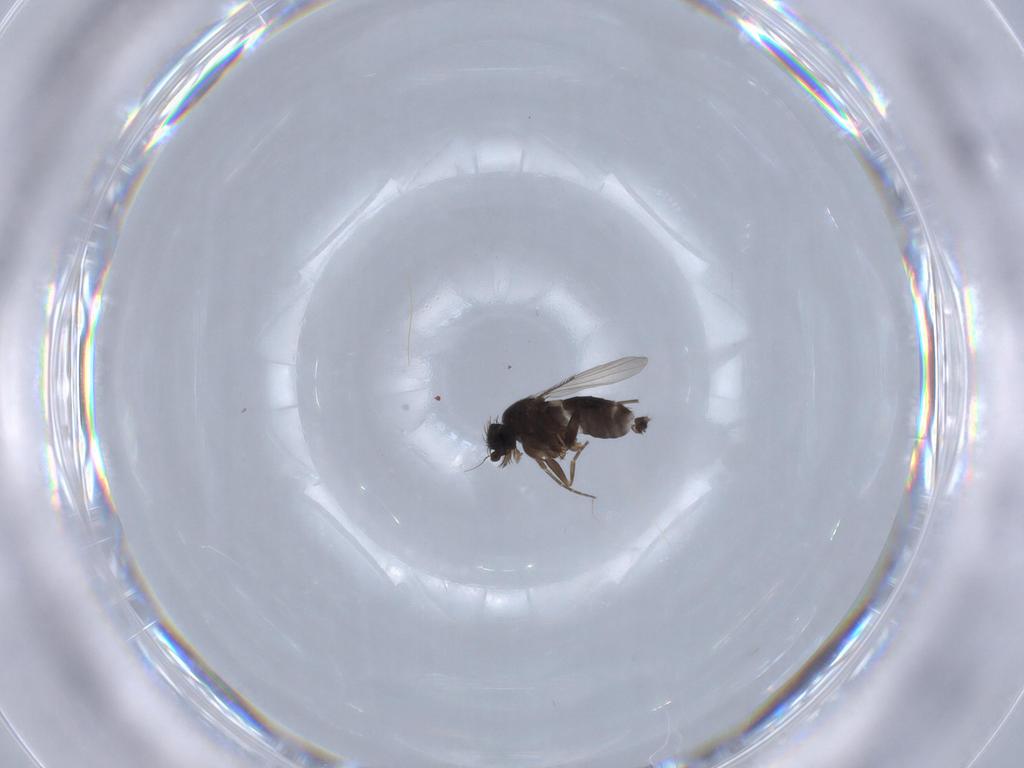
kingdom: Animalia
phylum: Arthropoda
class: Insecta
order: Diptera
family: Phoridae
